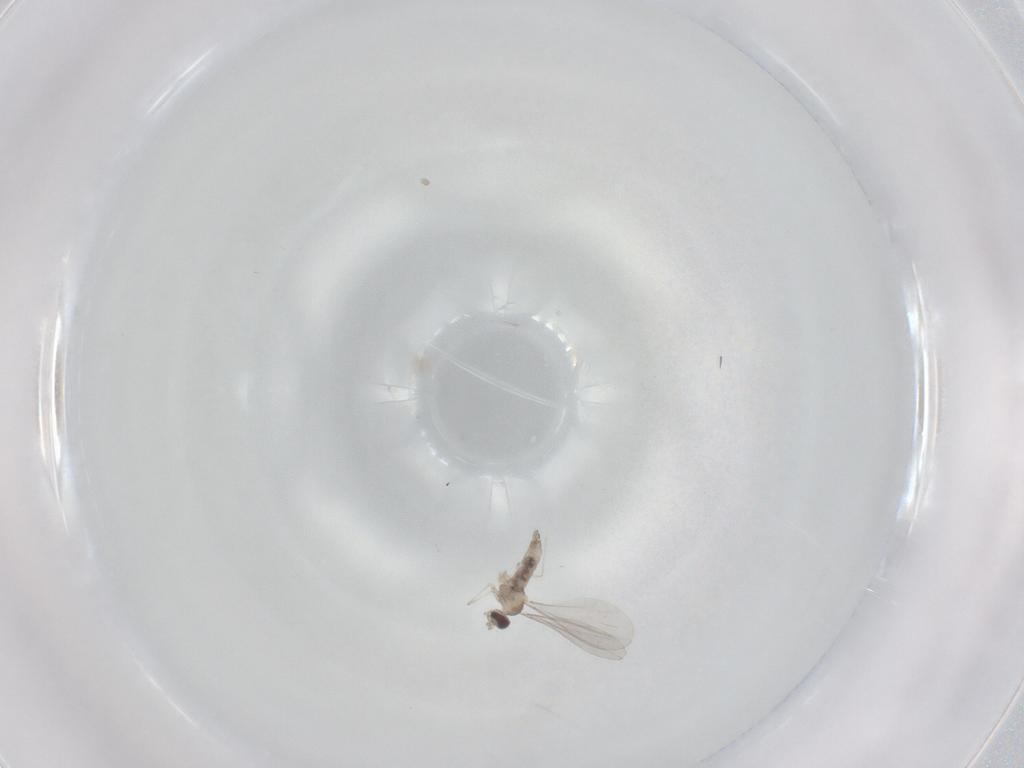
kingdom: Animalia
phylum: Arthropoda
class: Insecta
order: Diptera
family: Cecidomyiidae
